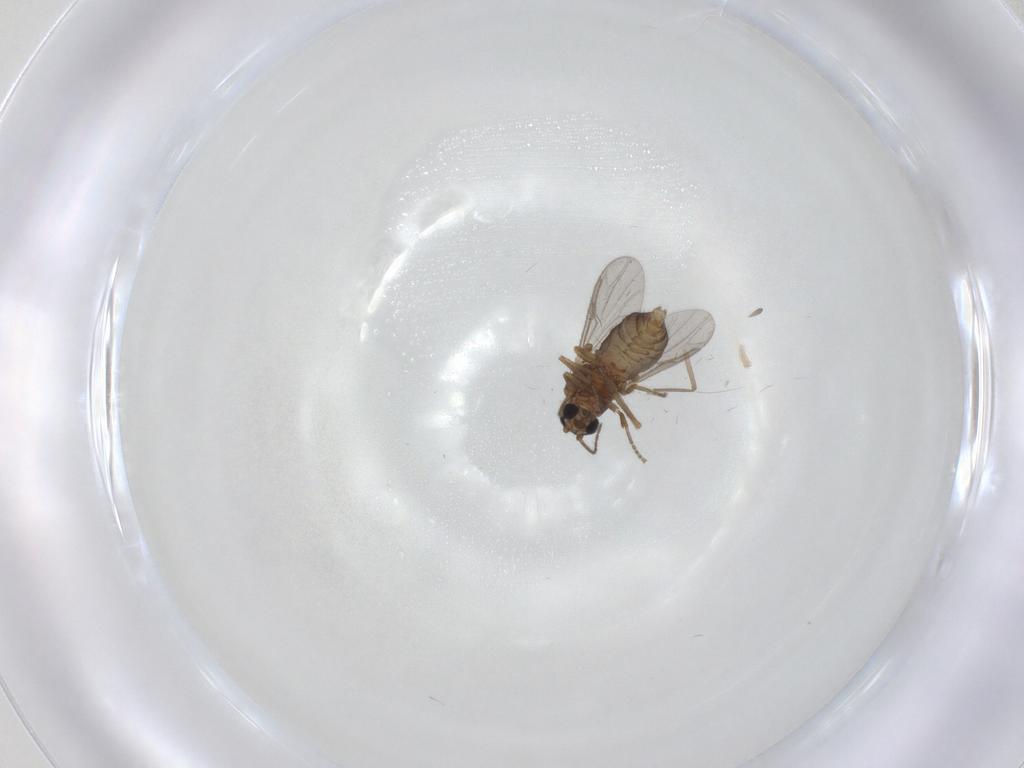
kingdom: Animalia
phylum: Arthropoda
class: Insecta
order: Diptera
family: Chironomidae
